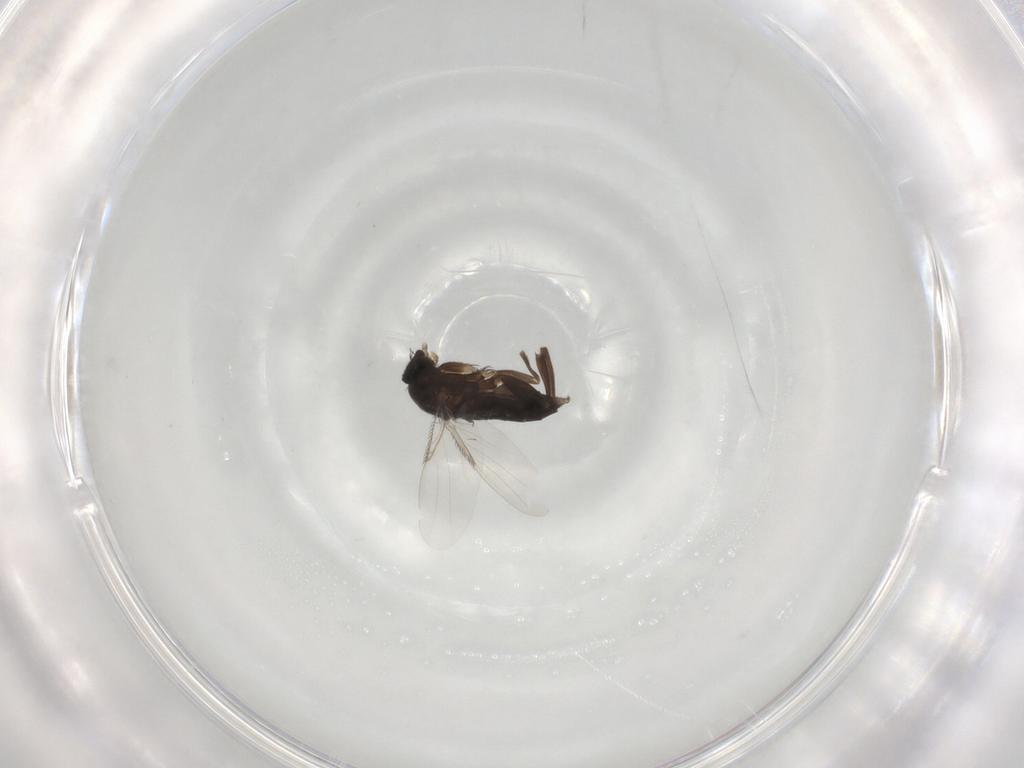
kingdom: Animalia
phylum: Arthropoda
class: Insecta
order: Diptera
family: Phoridae
